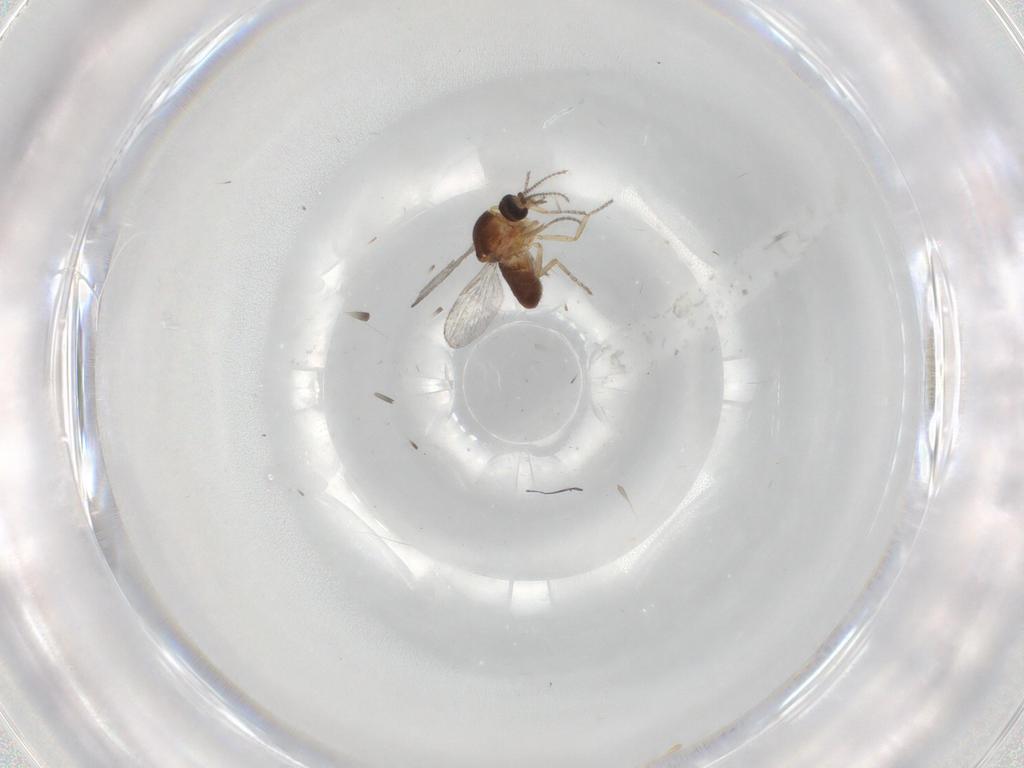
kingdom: Animalia
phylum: Arthropoda
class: Insecta
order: Diptera
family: Ceratopogonidae
